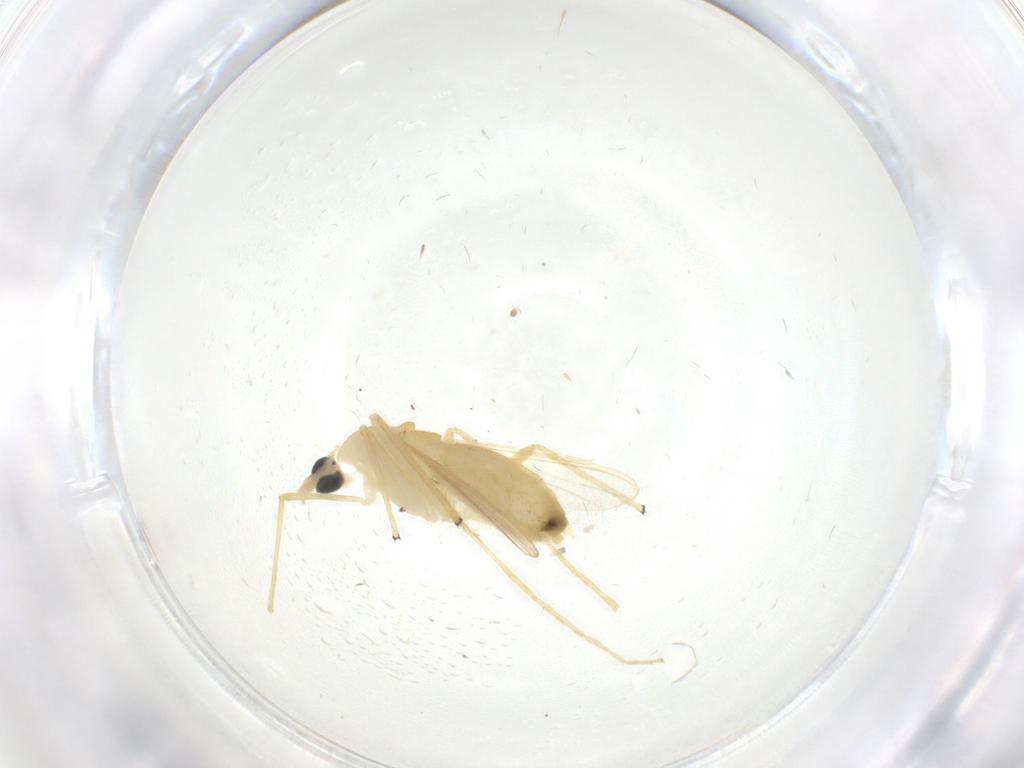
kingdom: Animalia
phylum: Arthropoda
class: Insecta
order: Diptera
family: Chironomidae
